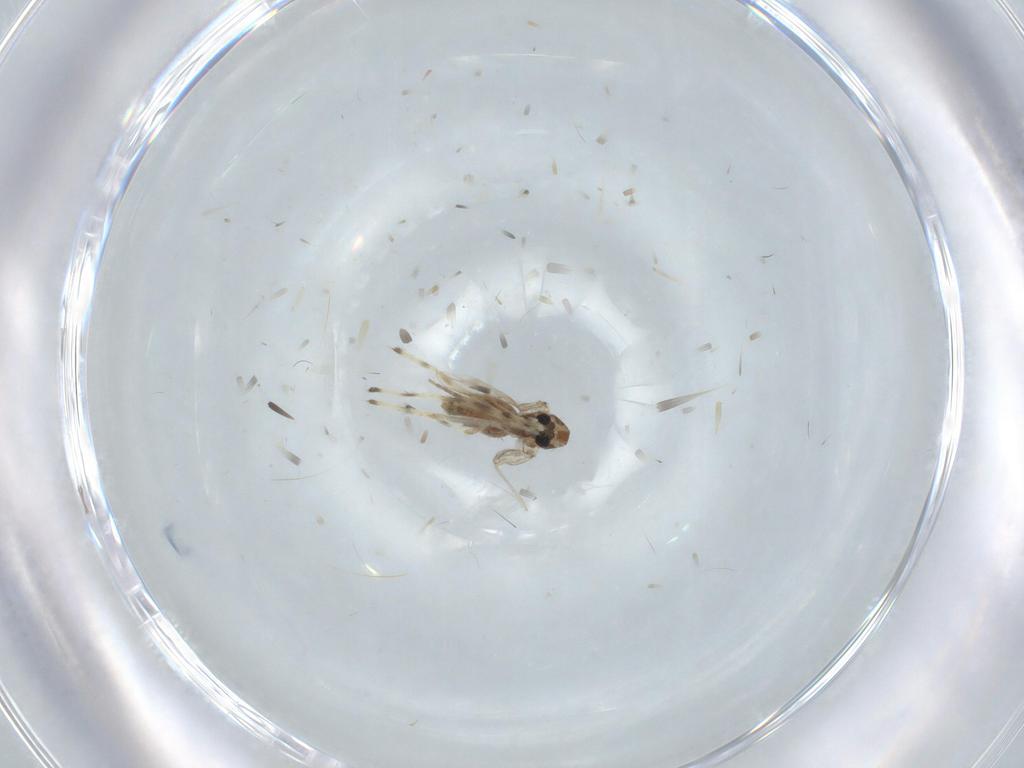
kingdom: Animalia
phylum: Arthropoda
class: Insecta
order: Diptera
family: Chironomidae
